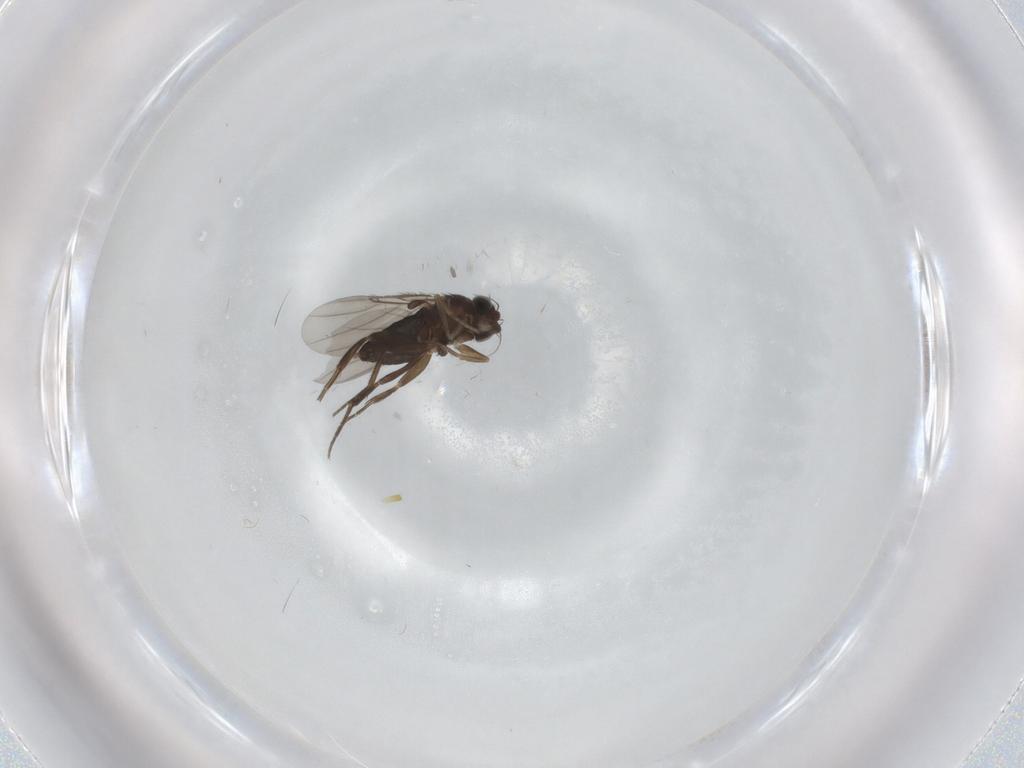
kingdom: Animalia
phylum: Arthropoda
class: Insecta
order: Diptera
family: Phoridae
